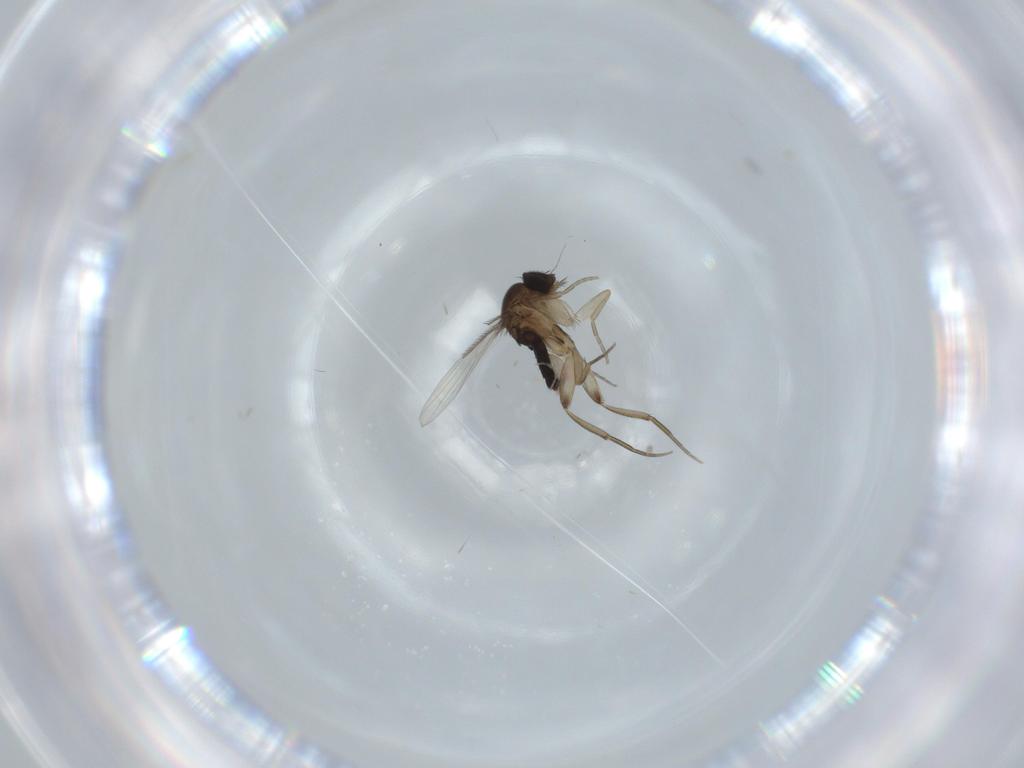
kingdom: Animalia
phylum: Arthropoda
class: Insecta
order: Diptera
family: Phoridae
